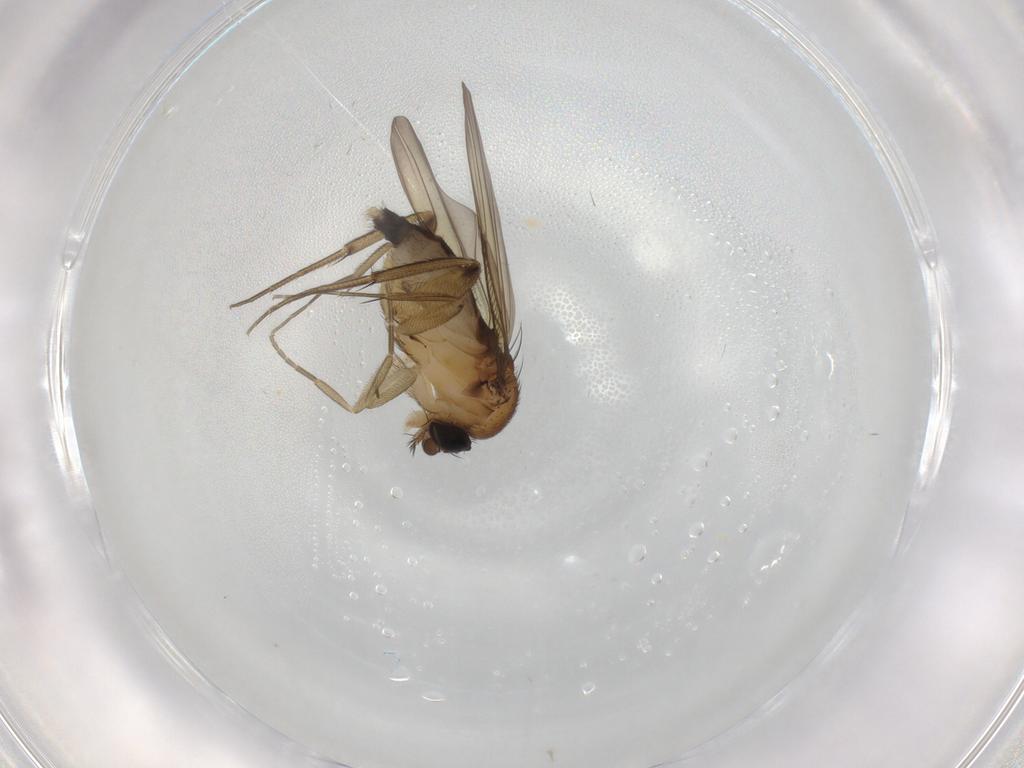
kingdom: Animalia
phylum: Arthropoda
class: Insecta
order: Diptera
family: Phoridae
